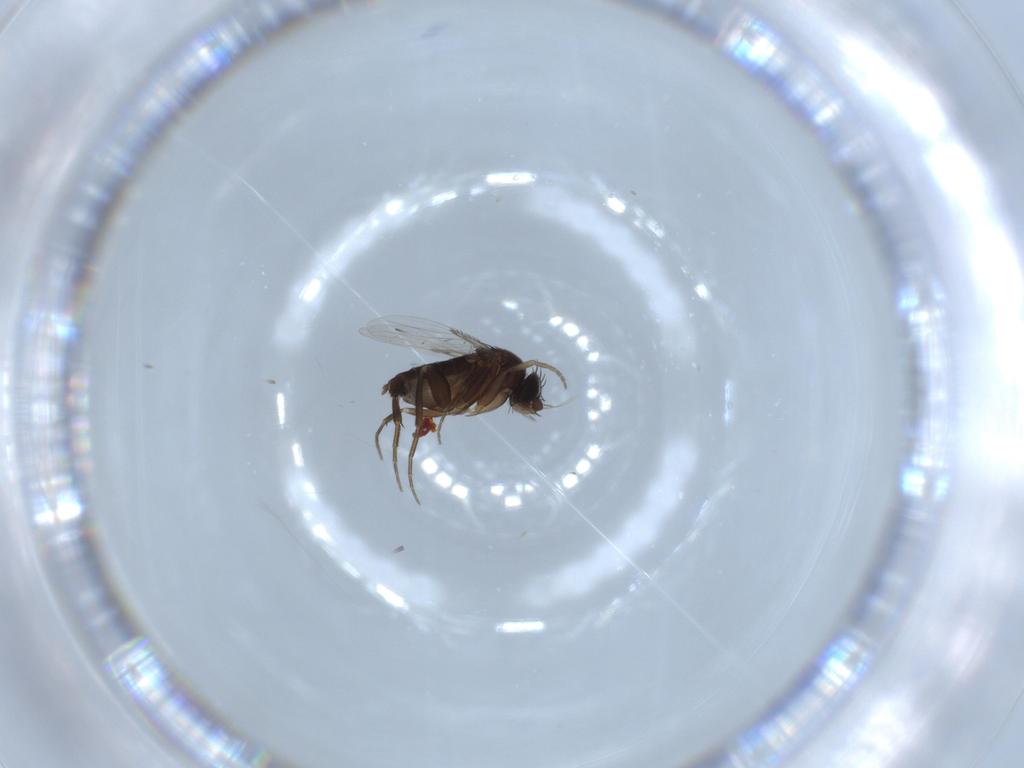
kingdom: Animalia
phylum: Arthropoda
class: Insecta
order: Diptera
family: Phoridae
